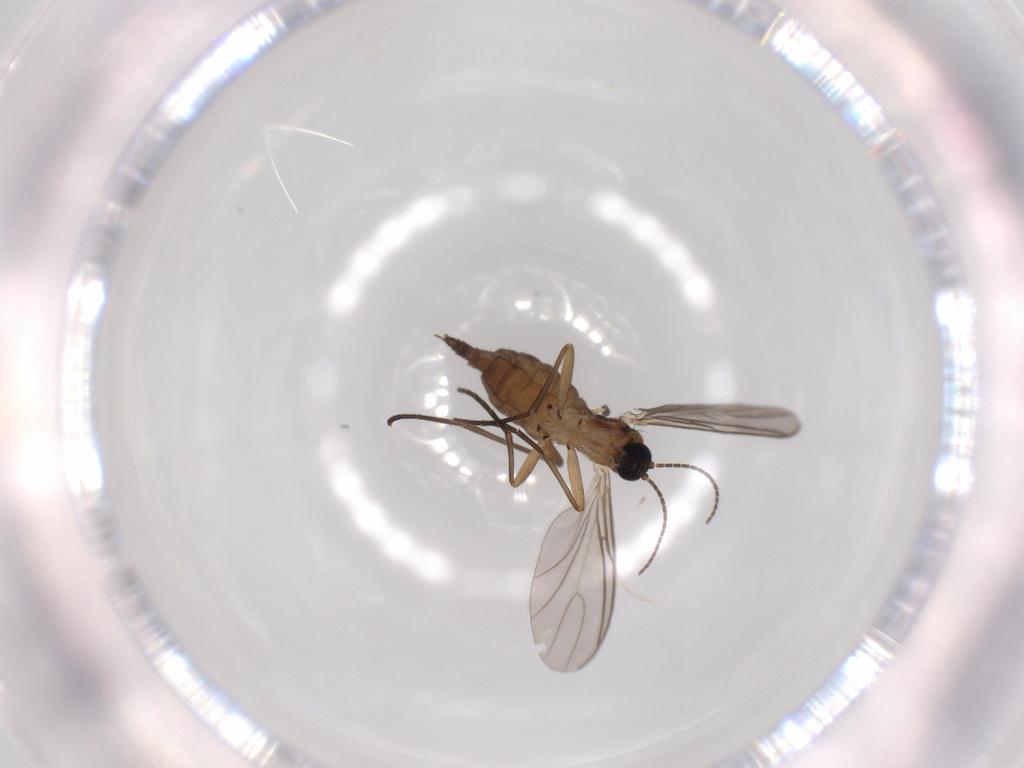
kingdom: Animalia
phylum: Arthropoda
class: Insecta
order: Diptera
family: Sciaridae
